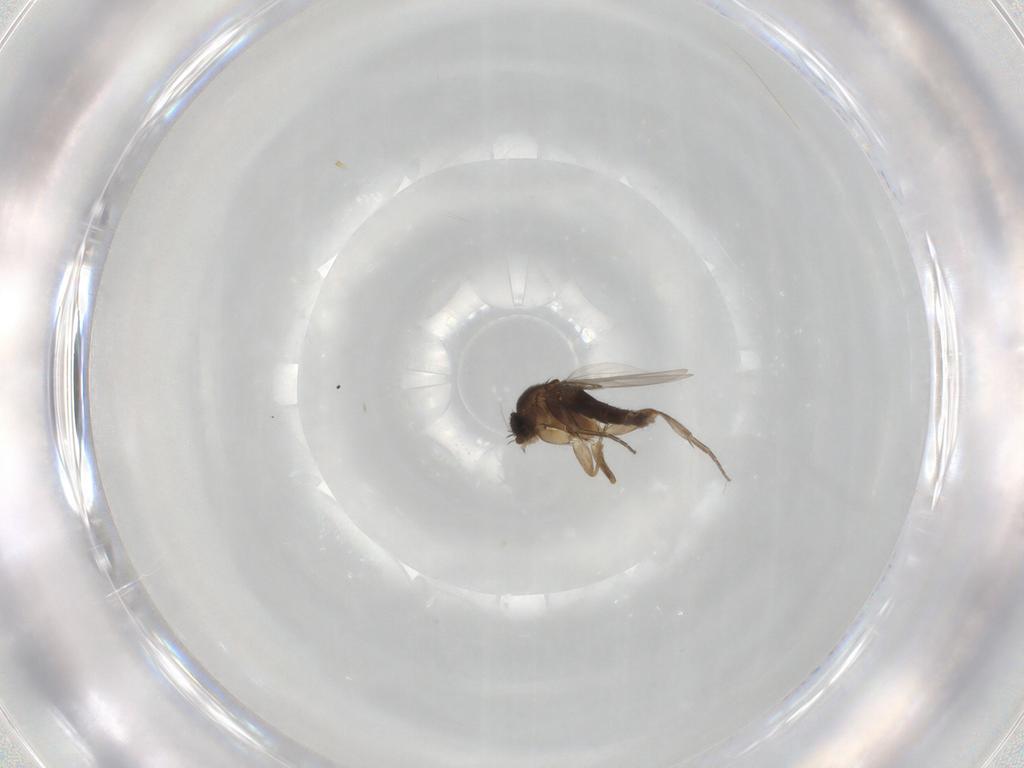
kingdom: Animalia
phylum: Arthropoda
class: Insecta
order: Diptera
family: Phoridae
